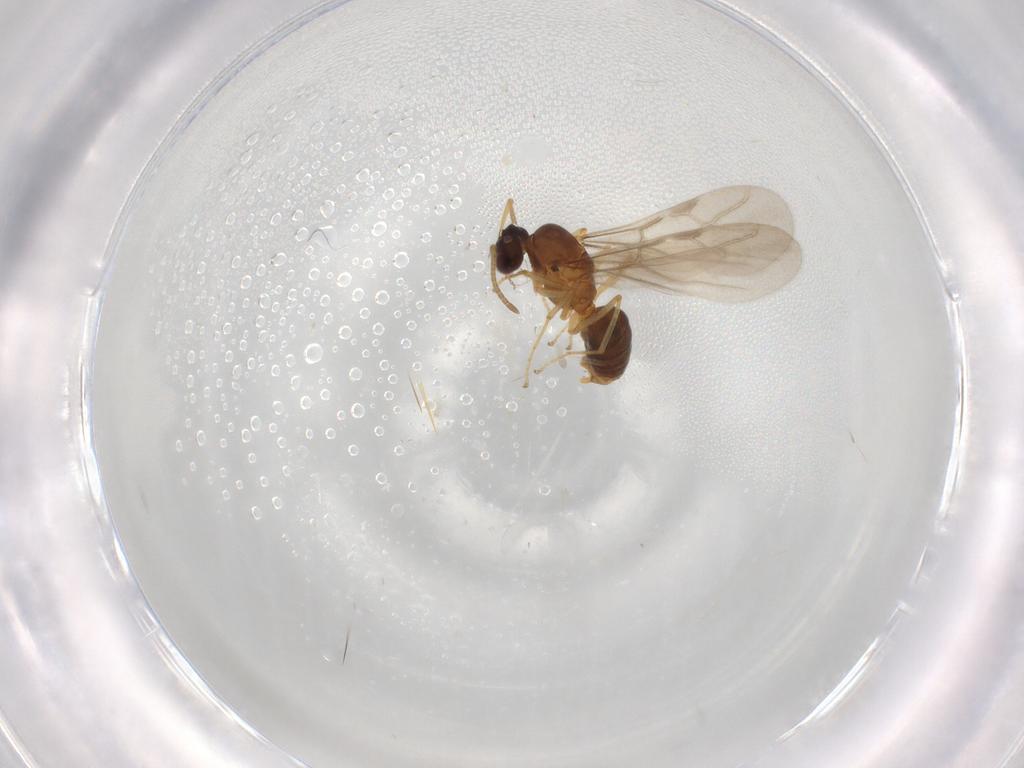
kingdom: Animalia
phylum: Arthropoda
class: Insecta
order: Hymenoptera
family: Formicidae
